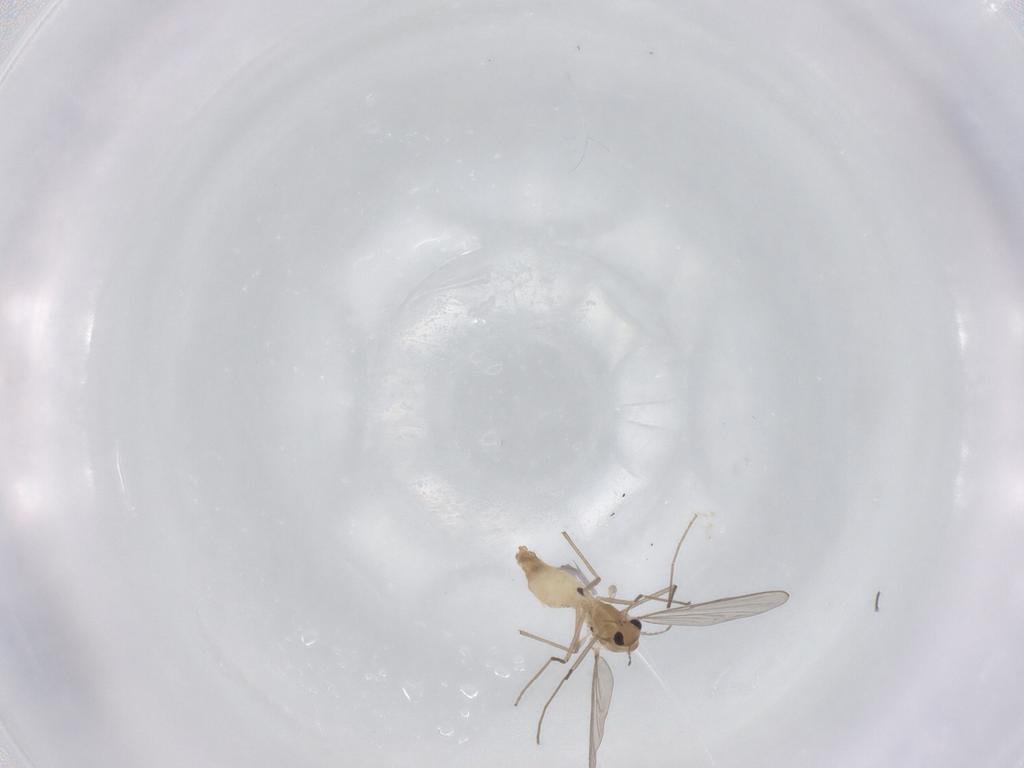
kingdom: Animalia
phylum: Arthropoda
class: Insecta
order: Diptera
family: Chironomidae
